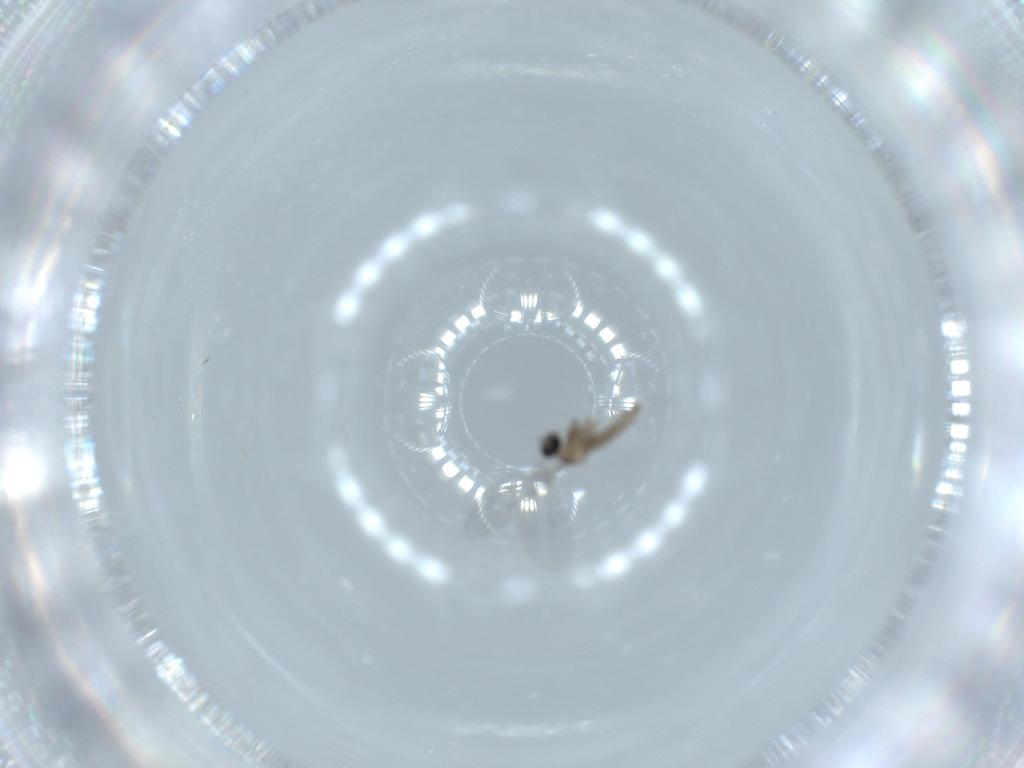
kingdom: Animalia
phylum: Arthropoda
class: Insecta
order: Diptera
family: Cecidomyiidae
